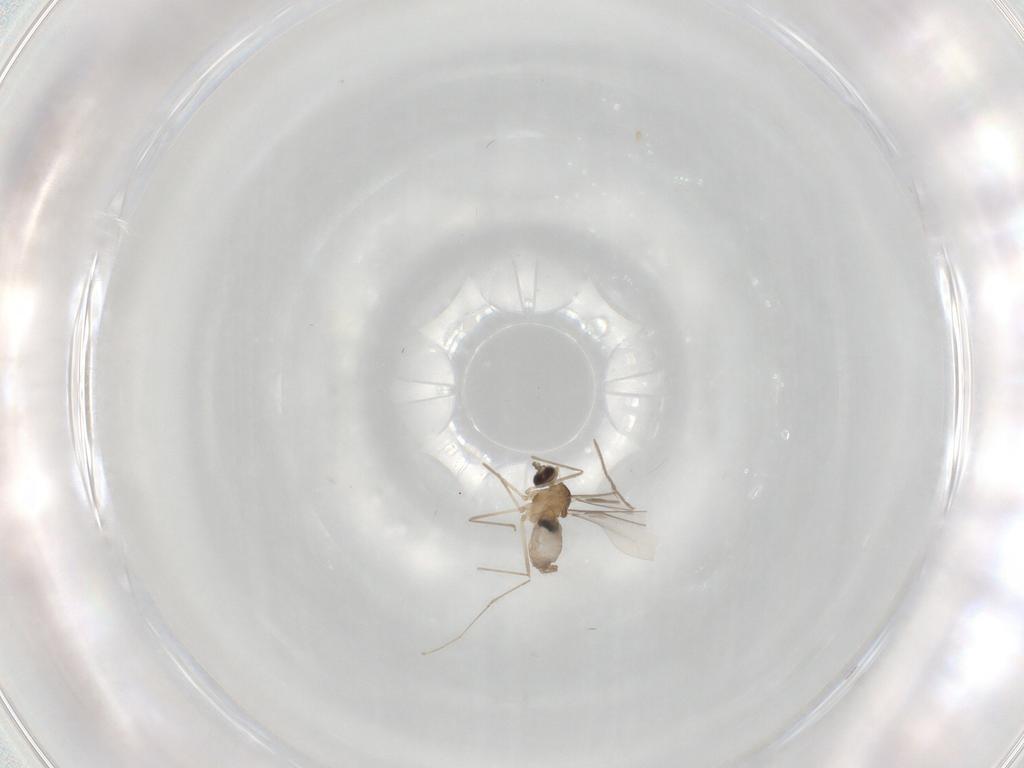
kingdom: Animalia
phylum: Arthropoda
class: Insecta
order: Diptera
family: Cecidomyiidae
